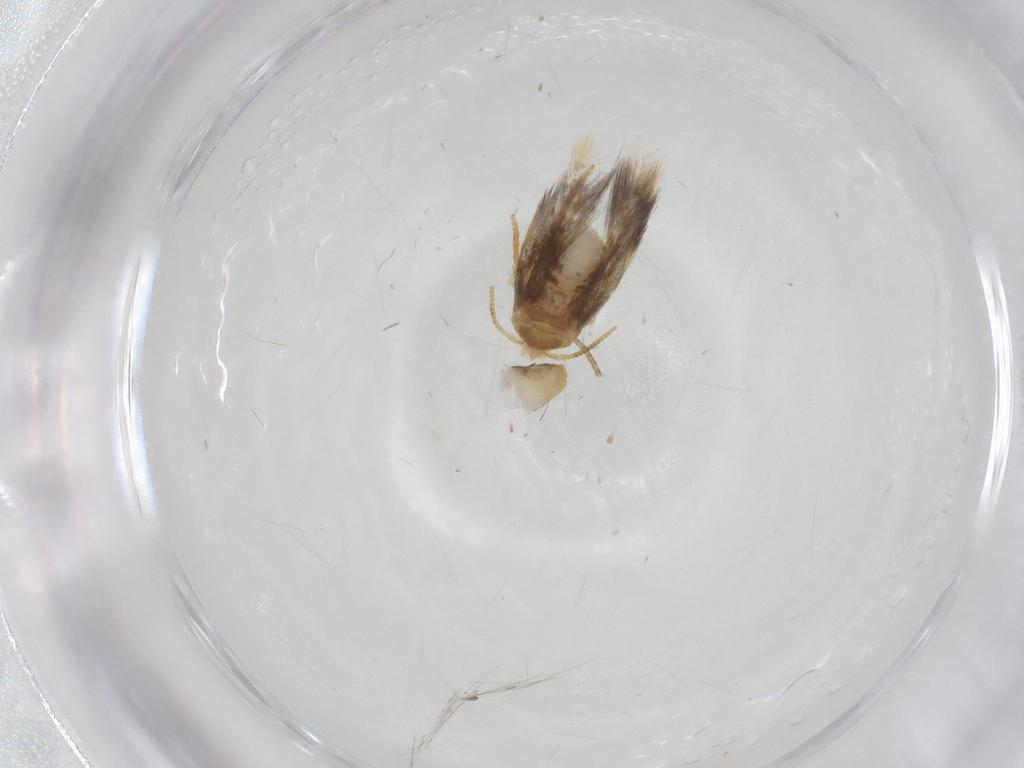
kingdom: Animalia
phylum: Arthropoda
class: Insecta
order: Lepidoptera
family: Copromorphidae
